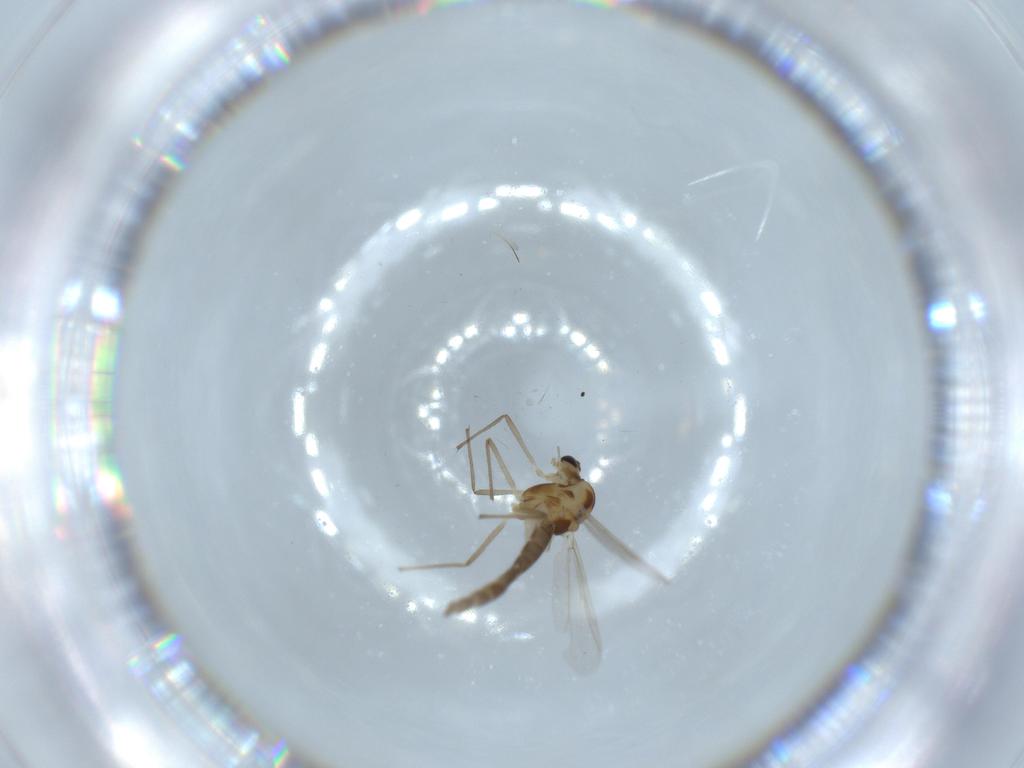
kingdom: Animalia
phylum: Arthropoda
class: Insecta
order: Diptera
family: Chironomidae
